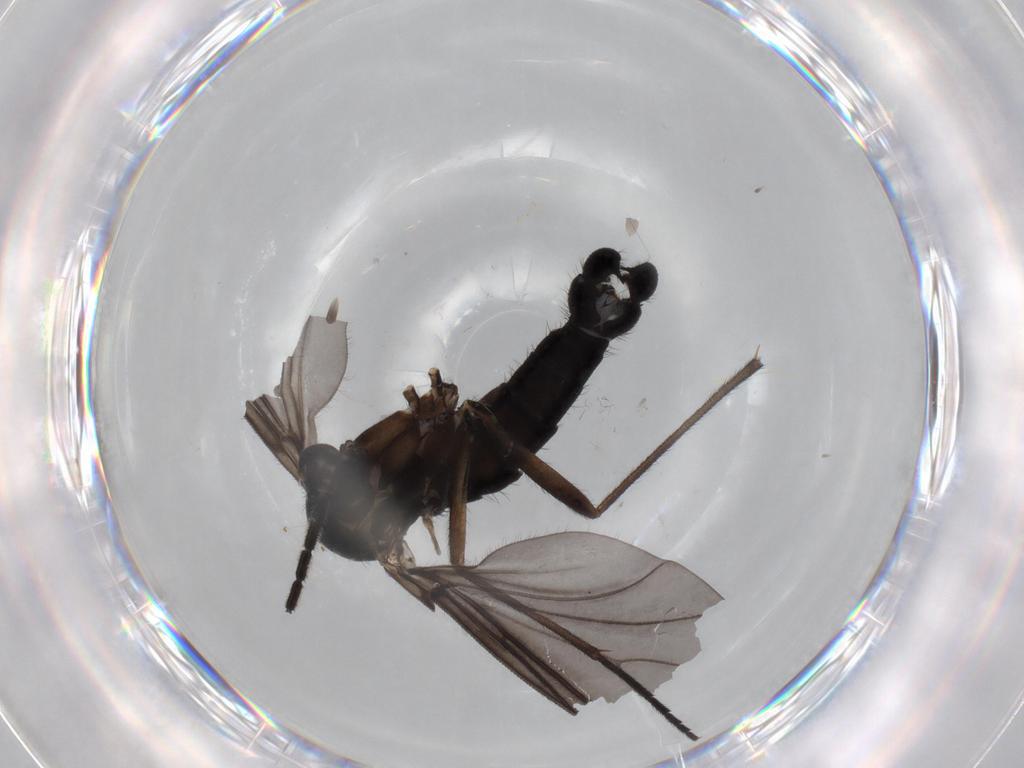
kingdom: Animalia
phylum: Arthropoda
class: Insecta
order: Diptera
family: Sciaridae
